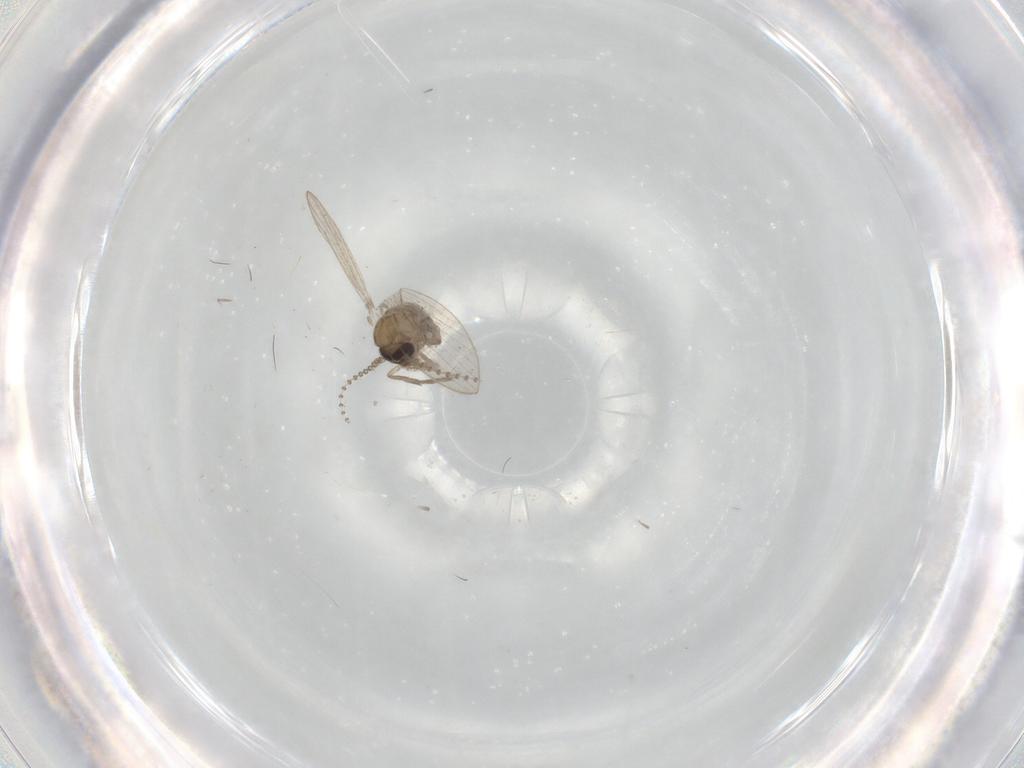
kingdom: Animalia
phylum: Arthropoda
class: Insecta
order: Diptera
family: Psychodidae
